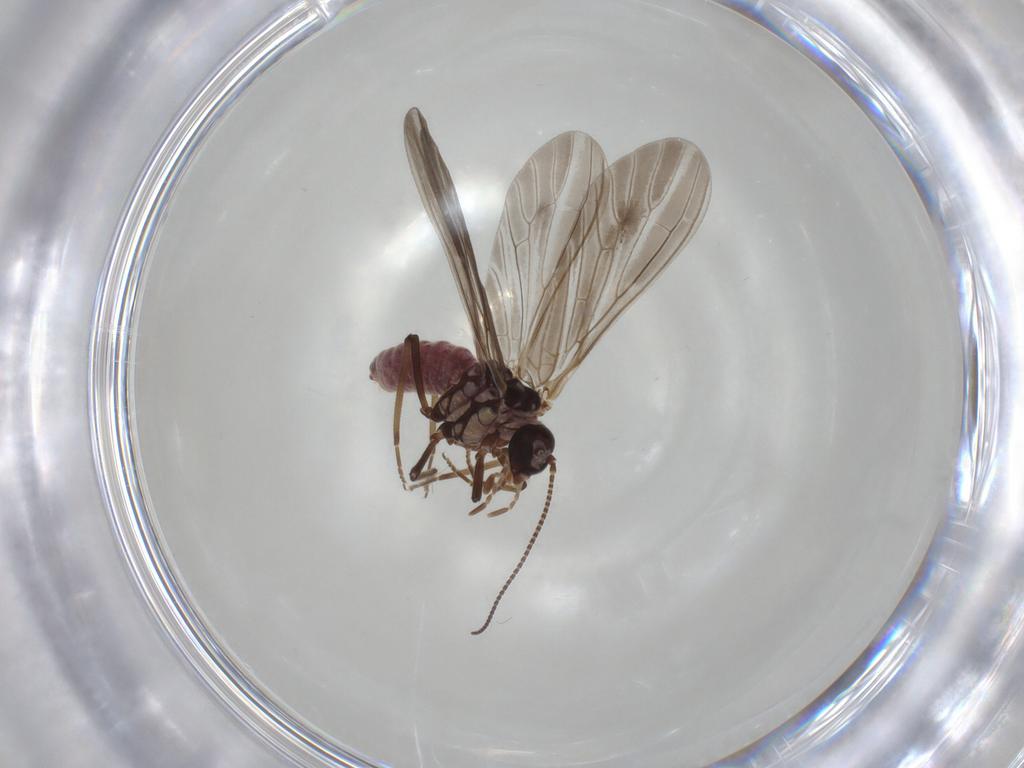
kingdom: Animalia
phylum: Arthropoda
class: Insecta
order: Neuroptera
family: Coniopterygidae
